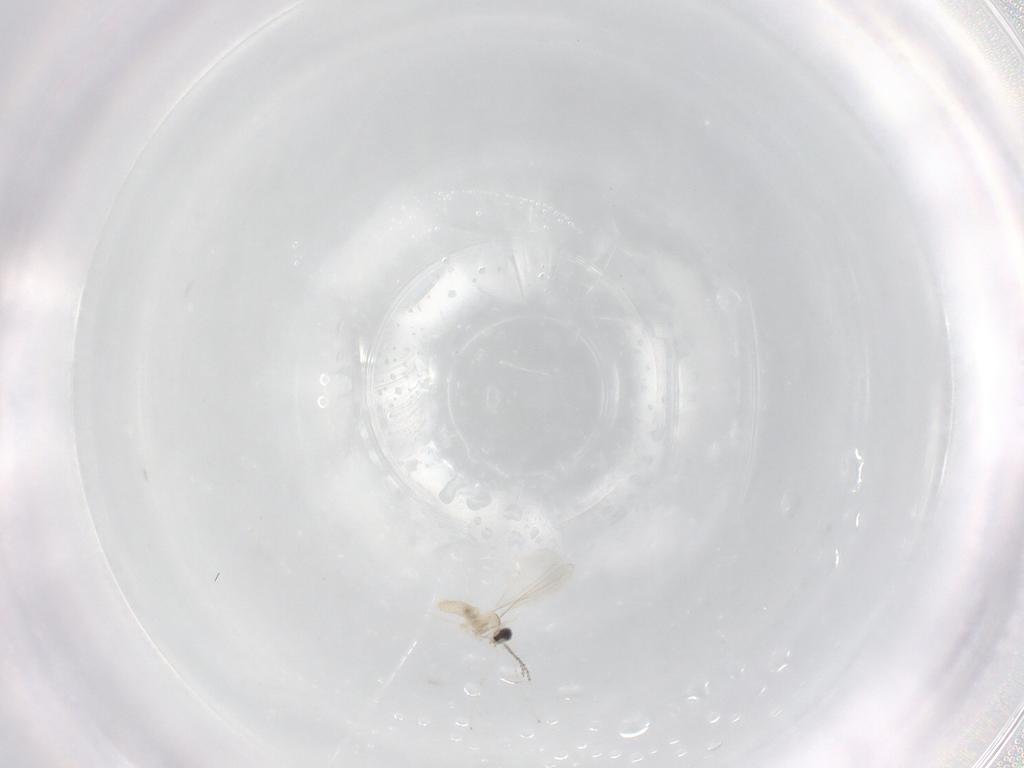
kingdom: Animalia
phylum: Arthropoda
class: Insecta
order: Diptera
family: Cecidomyiidae
